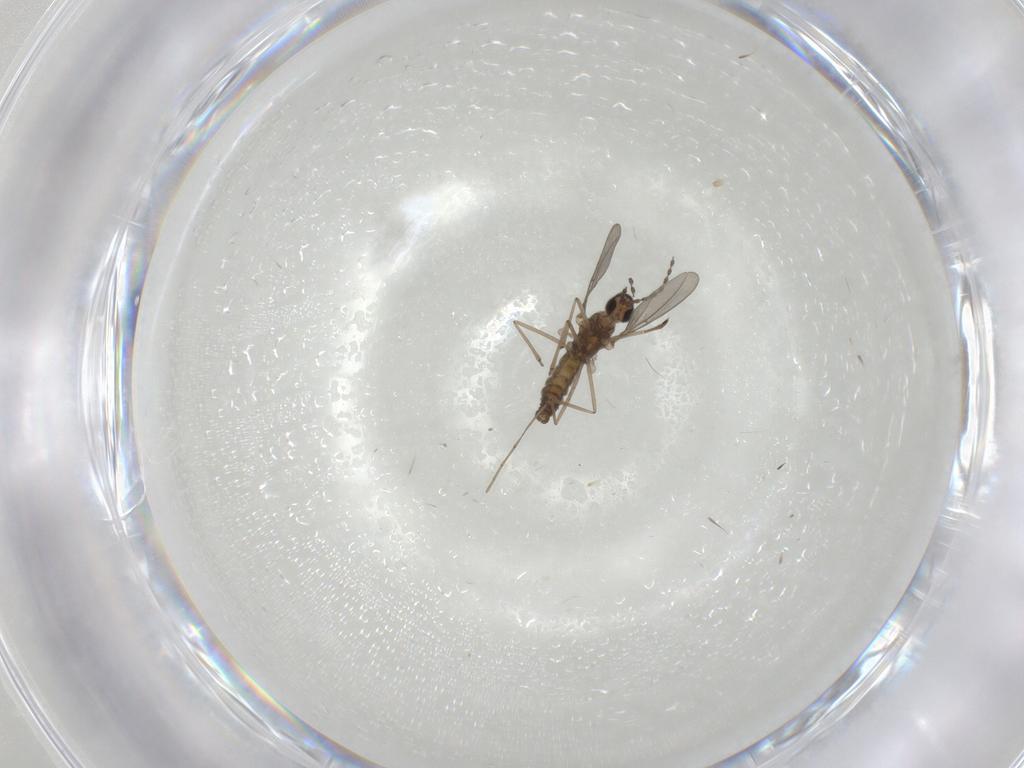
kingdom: Animalia
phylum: Arthropoda
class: Insecta
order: Diptera
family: Cecidomyiidae
